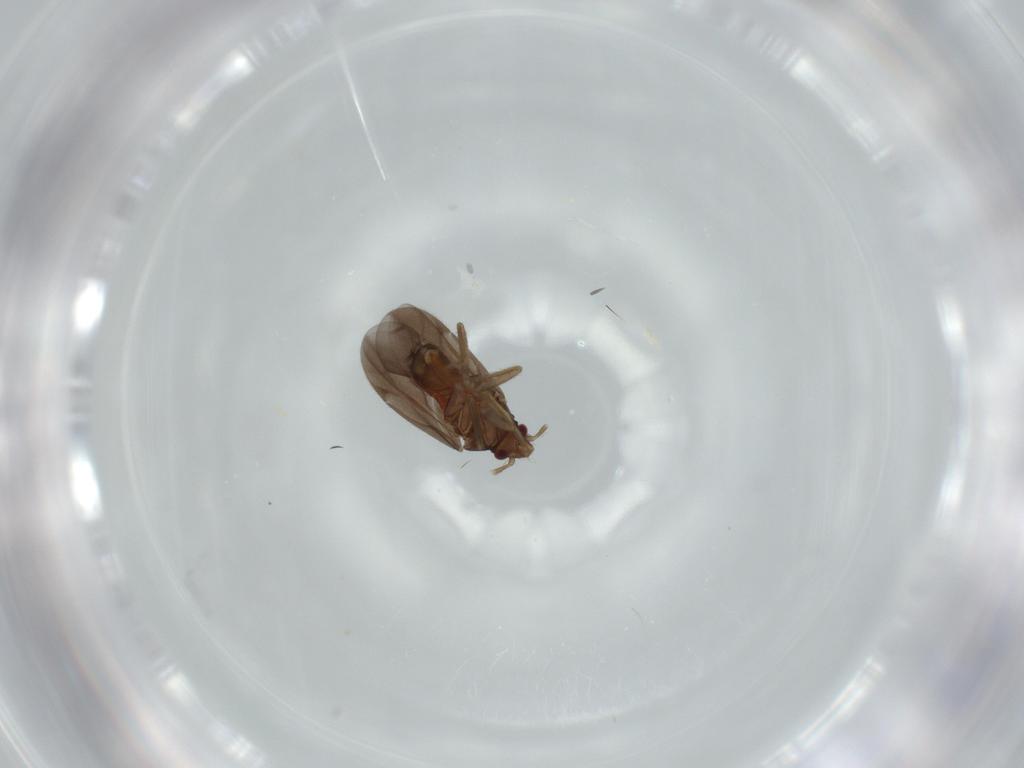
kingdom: Animalia
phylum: Arthropoda
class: Insecta
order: Hemiptera
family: Ceratocombidae
